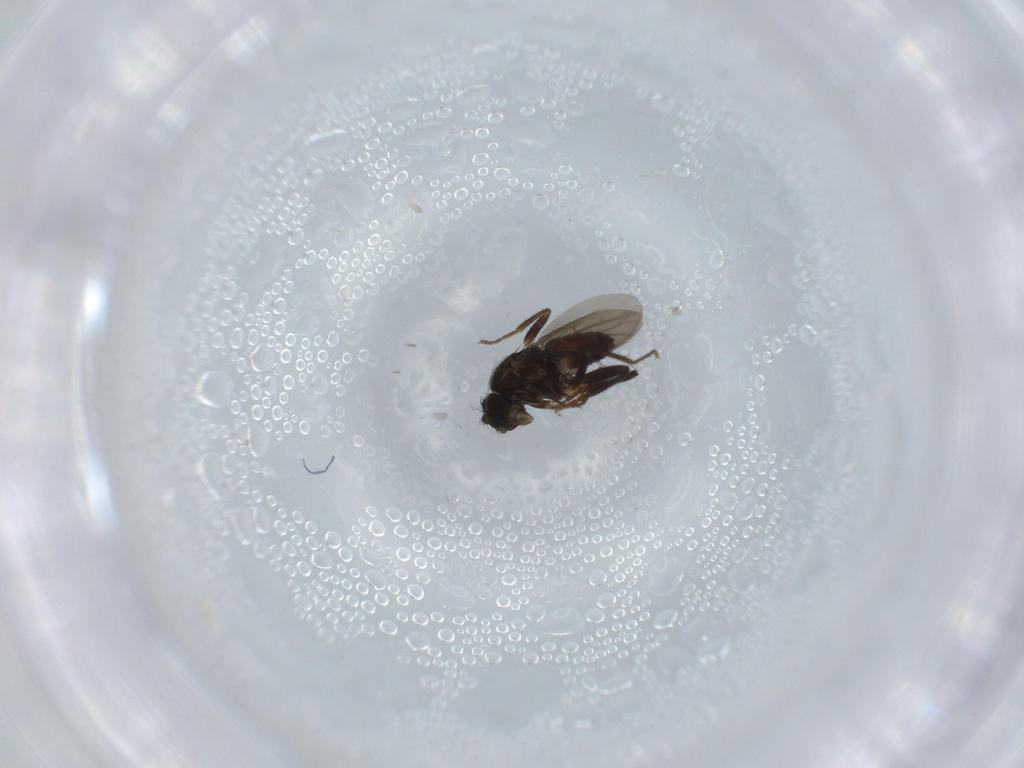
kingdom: Animalia
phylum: Arthropoda
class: Insecta
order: Diptera
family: Sphaeroceridae
